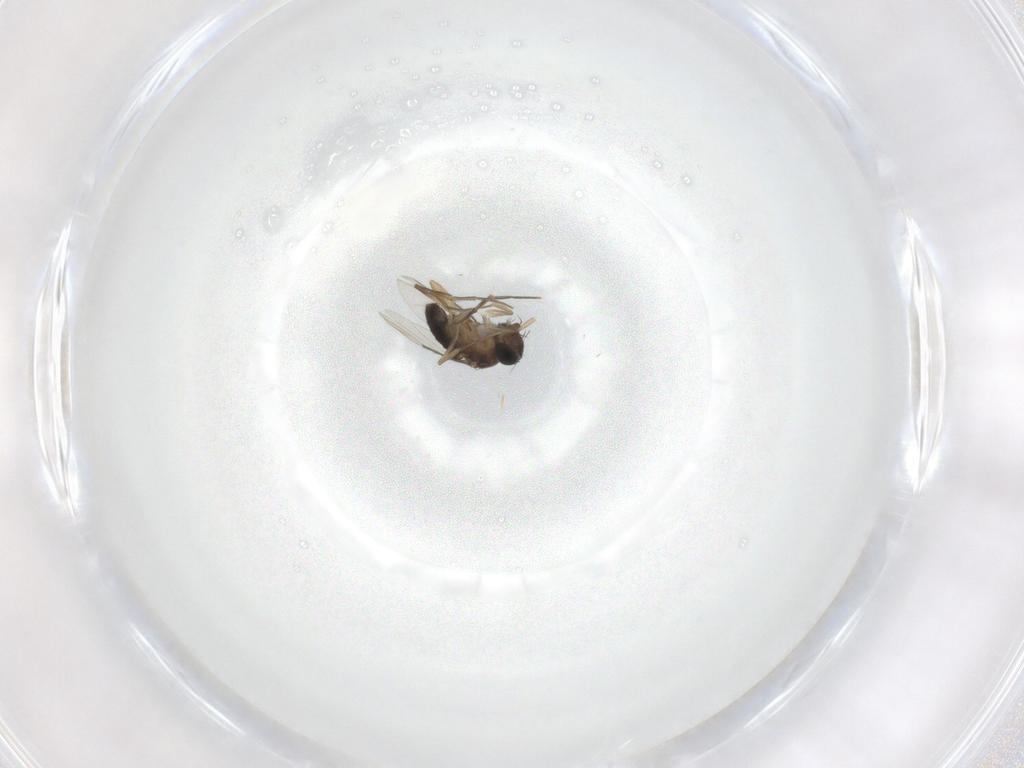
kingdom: Animalia
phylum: Arthropoda
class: Insecta
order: Diptera
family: Phoridae
